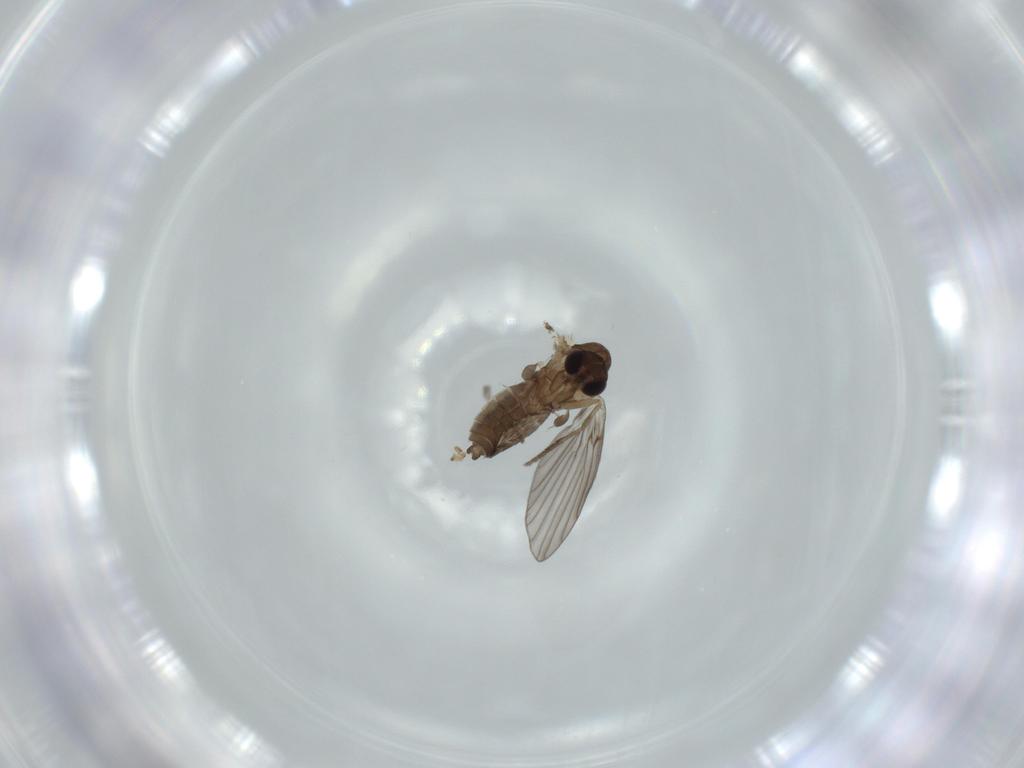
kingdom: Animalia
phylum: Arthropoda
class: Insecta
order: Diptera
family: Psychodidae
